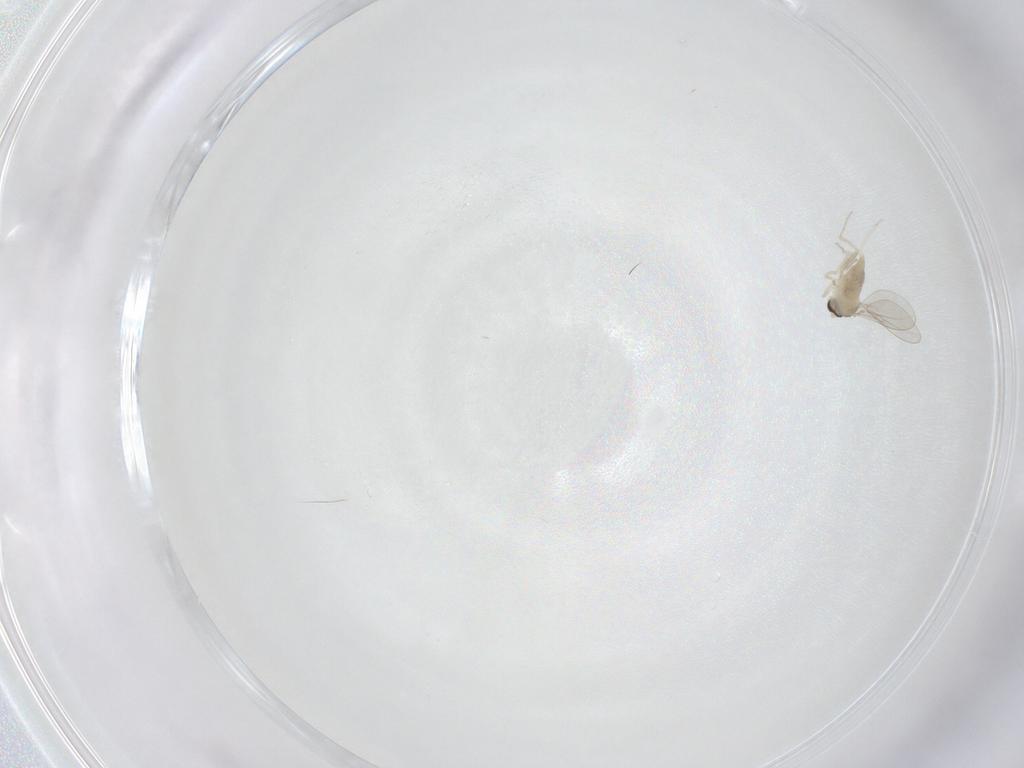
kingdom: Animalia
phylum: Arthropoda
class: Insecta
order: Diptera
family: Cecidomyiidae
